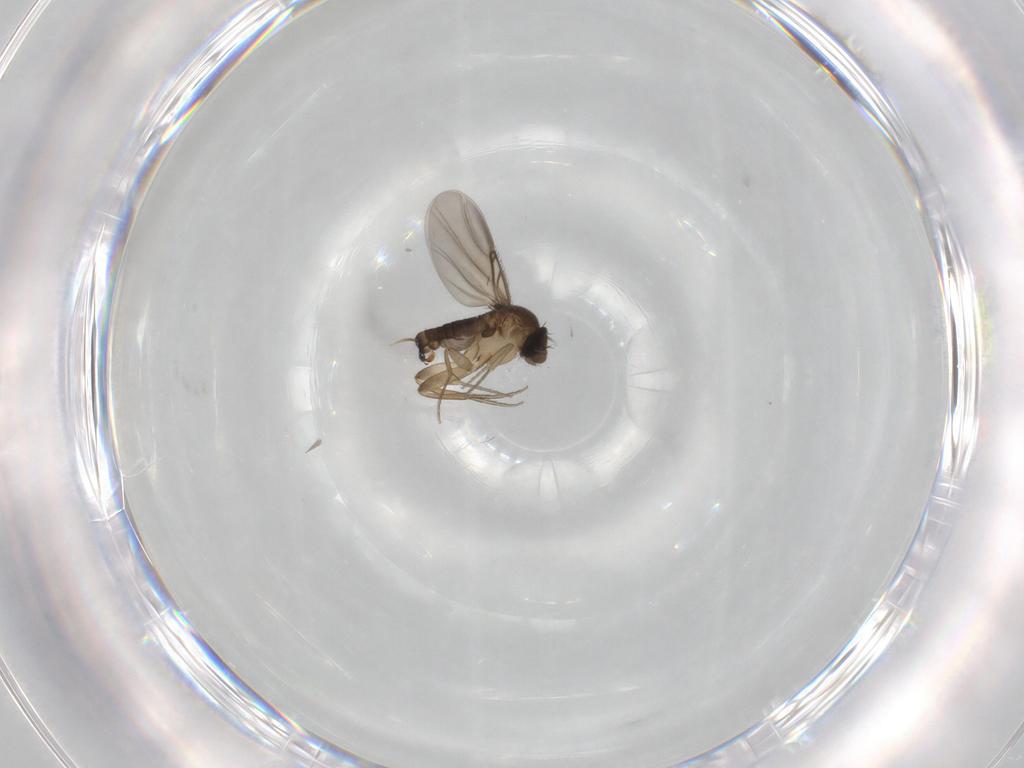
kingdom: Animalia
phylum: Arthropoda
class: Insecta
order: Diptera
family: Phoridae
